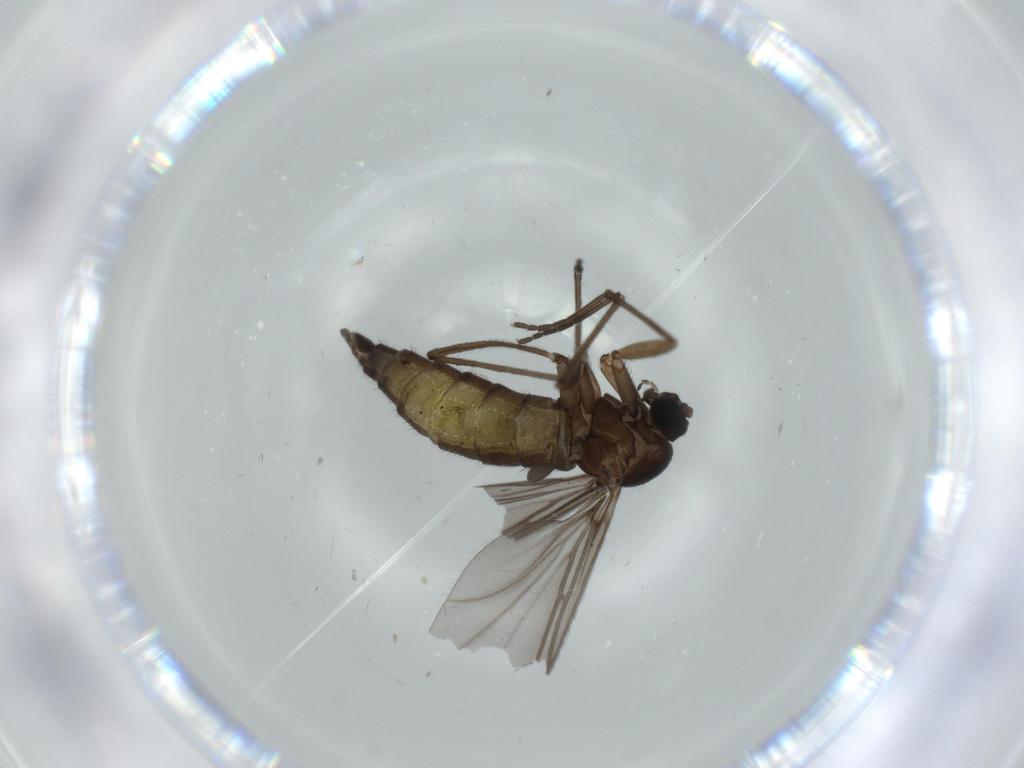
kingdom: Animalia
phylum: Arthropoda
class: Insecta
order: Diptera
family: Sciaridae
